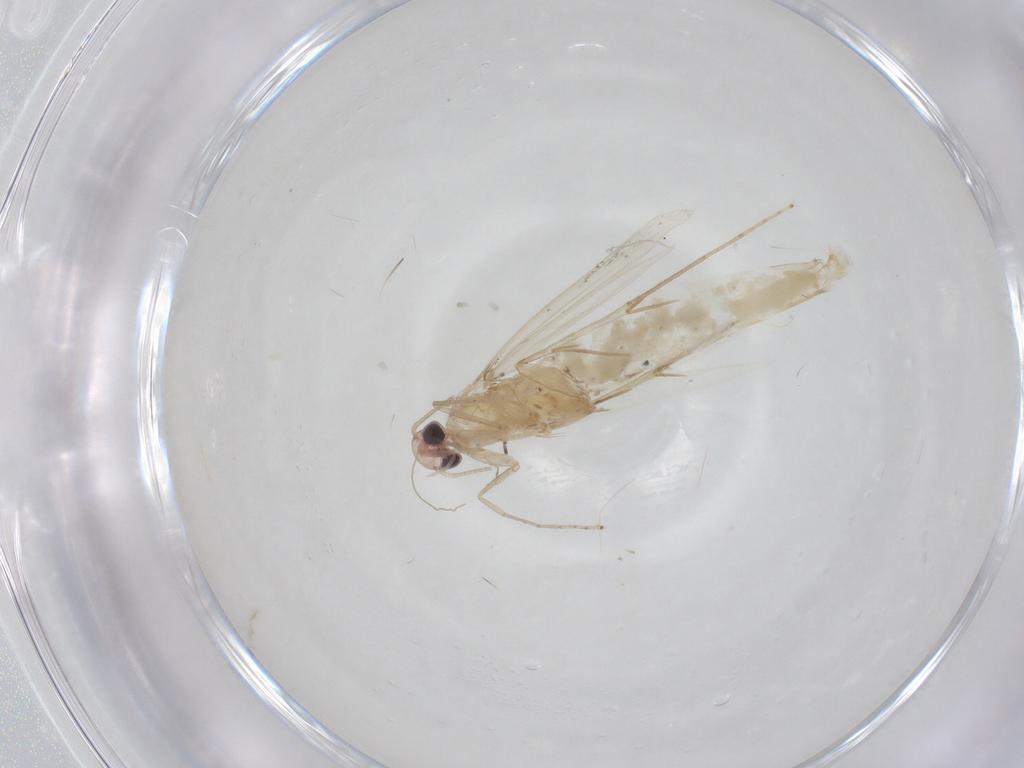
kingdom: Animalia
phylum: Arthropoda
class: Insecta
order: Lepidoptera
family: Gracillariidae
